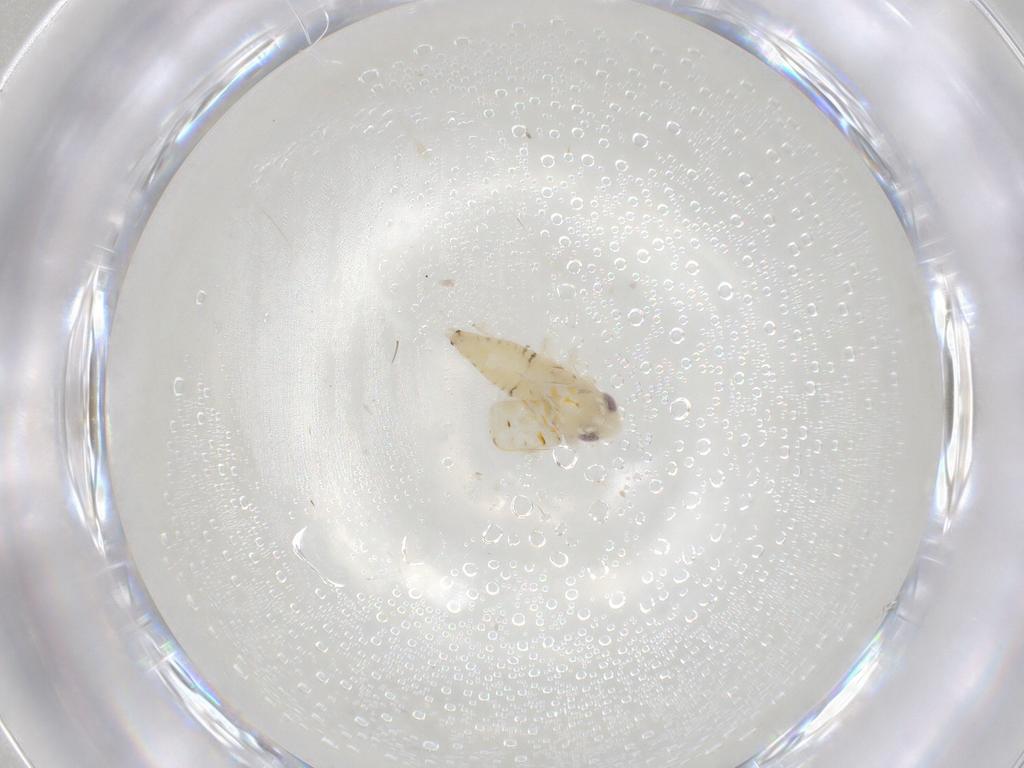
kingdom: Animalia
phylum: Arthropoda
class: Insecta
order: Hemiptera
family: Cicadellidae
